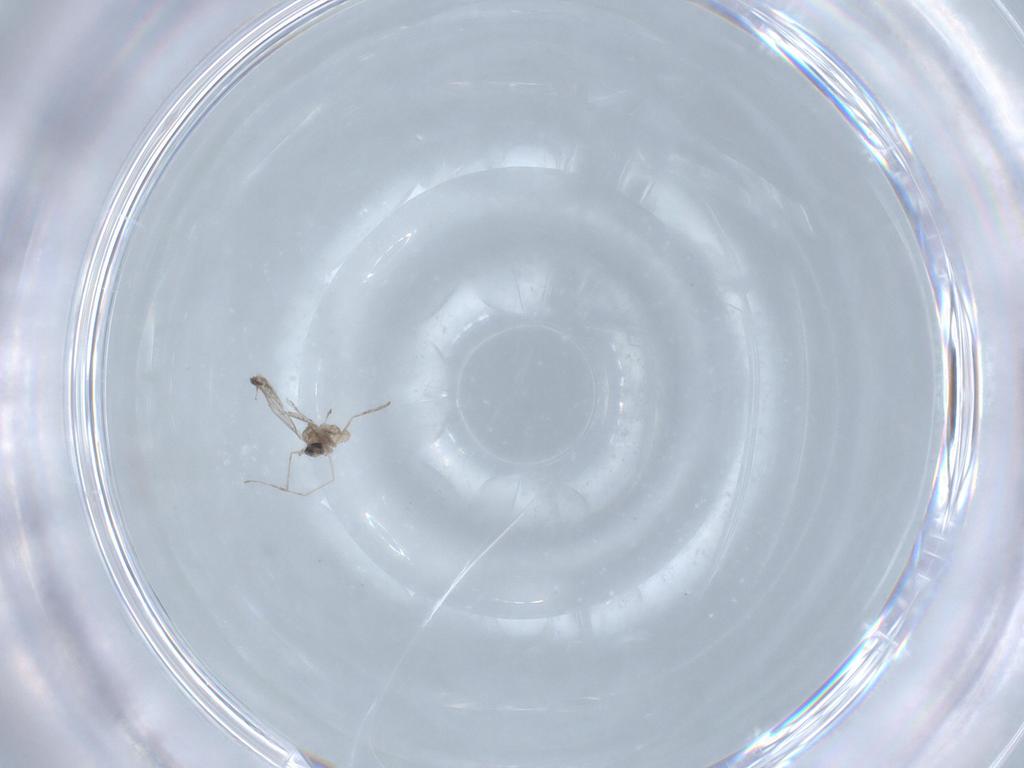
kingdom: Animalia
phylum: Arthropoda
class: Insecta
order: Diptera
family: Cecidomyiidae
